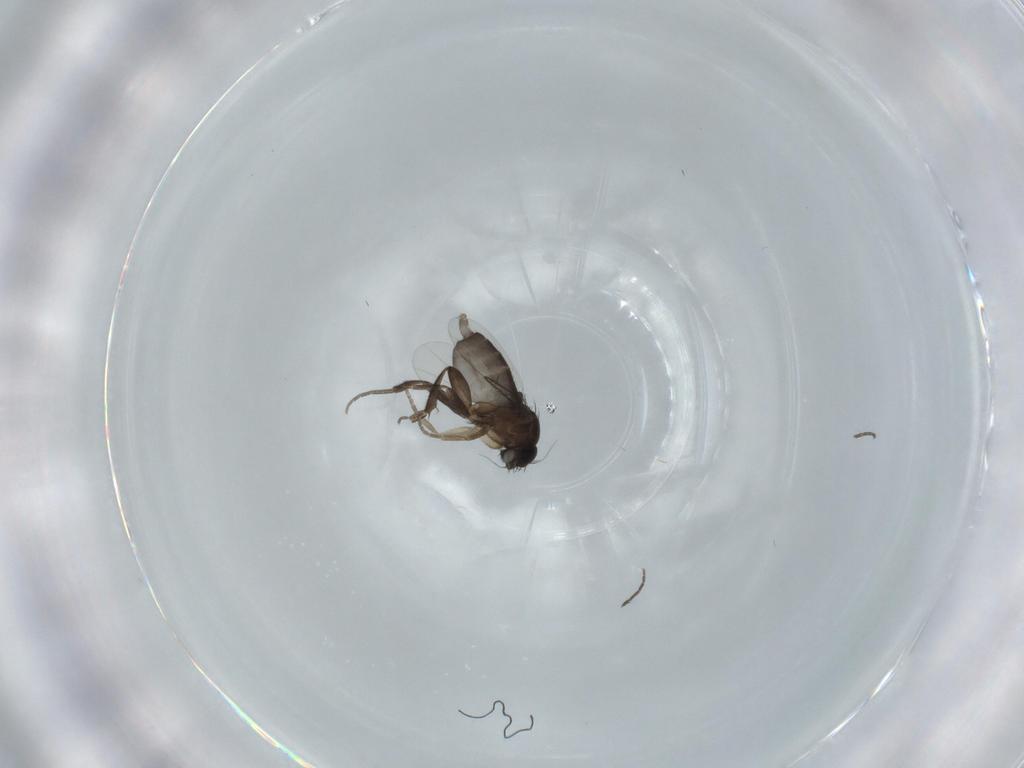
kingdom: Animalia
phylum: Arthropoda
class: Insecta
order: Diptera
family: Phoridae
